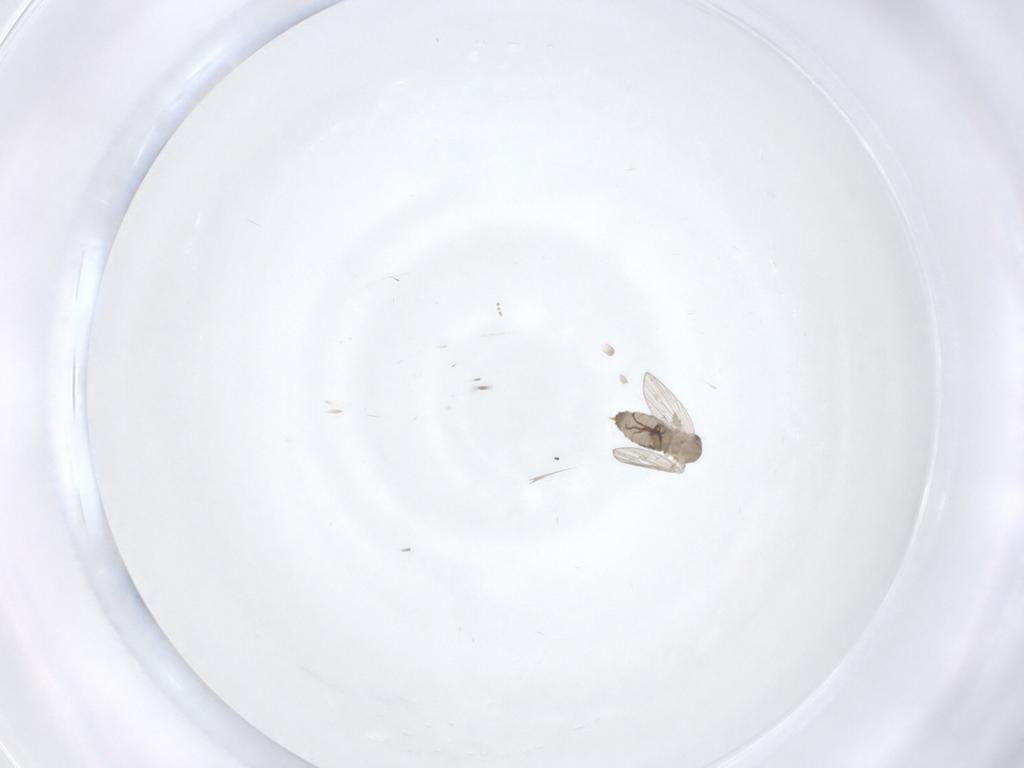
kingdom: Animalia
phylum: Arthropoda
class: Insecta
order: Diptera
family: Psychodidae
